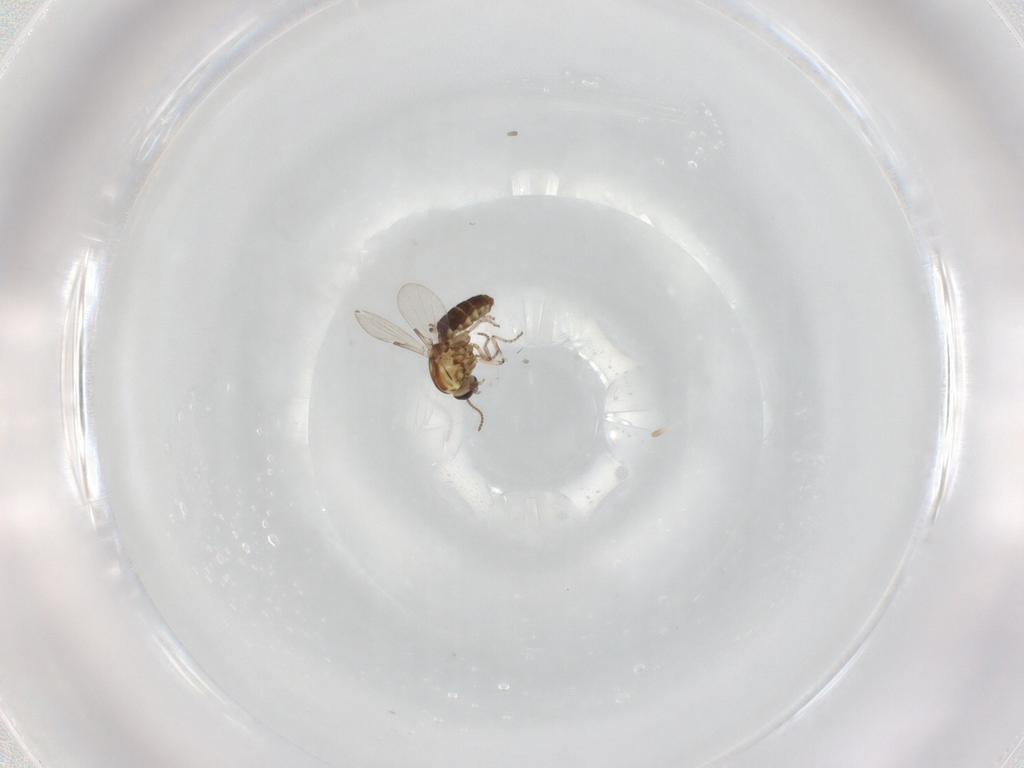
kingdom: Animalia
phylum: Arthropoda
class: Insecta
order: Diptera
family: Ceratopogonidae
